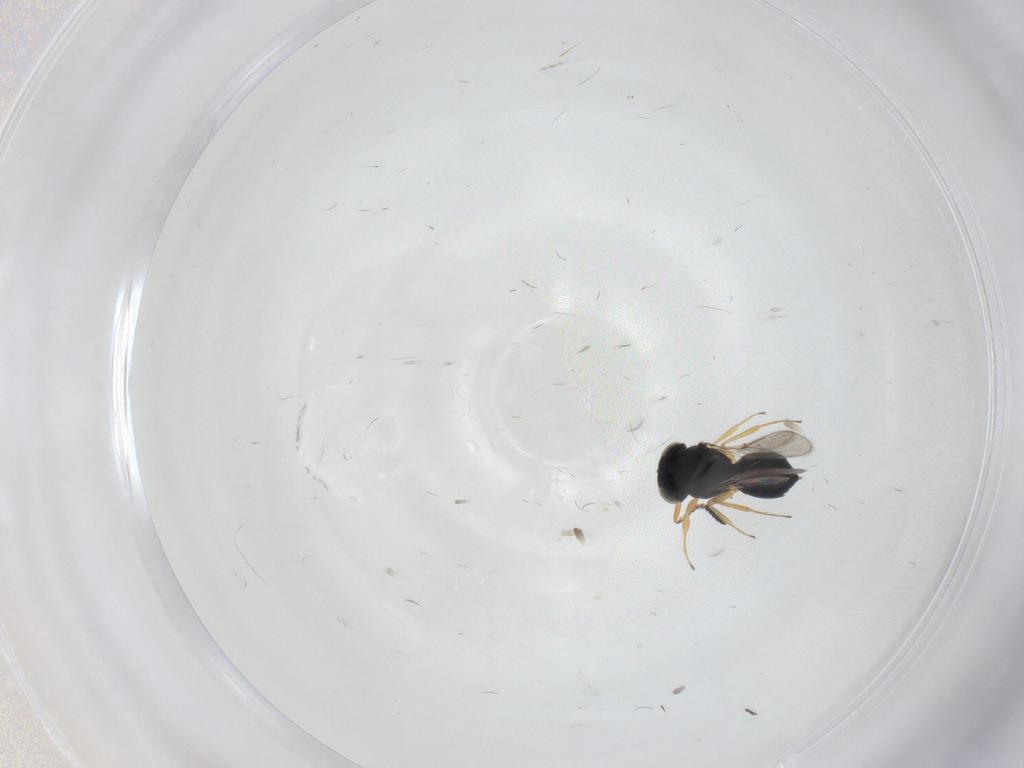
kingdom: Animalia
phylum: Arthropoda
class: Insecta
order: Hymenoptera
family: Scelionidae
